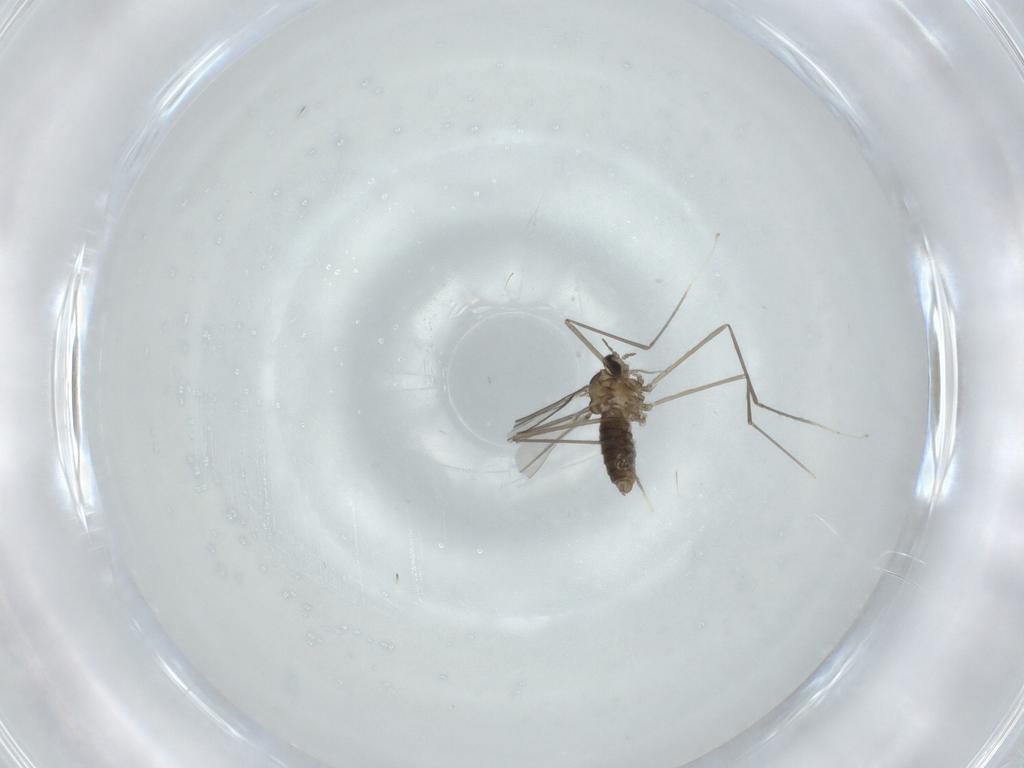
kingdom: Animalia
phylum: Arthropoda
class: Insecta
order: Diptera
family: Cecidomyiidae
